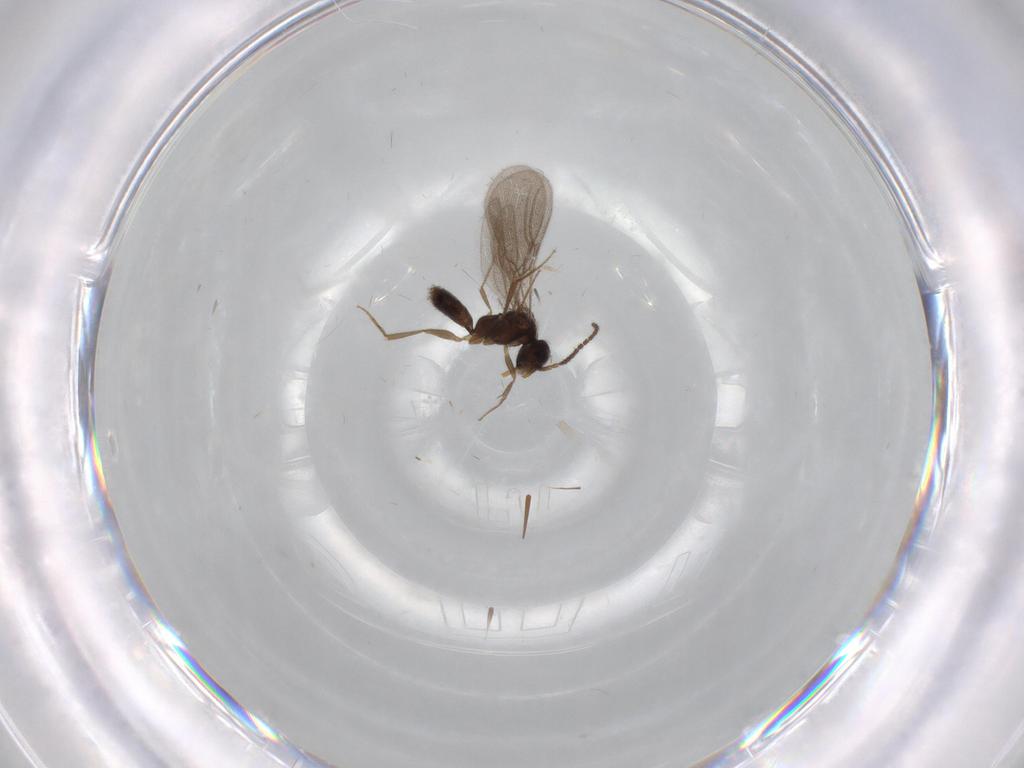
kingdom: Animalia
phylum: Arthropoda
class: Insecta
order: Hymenoptera
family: Bethylidae
